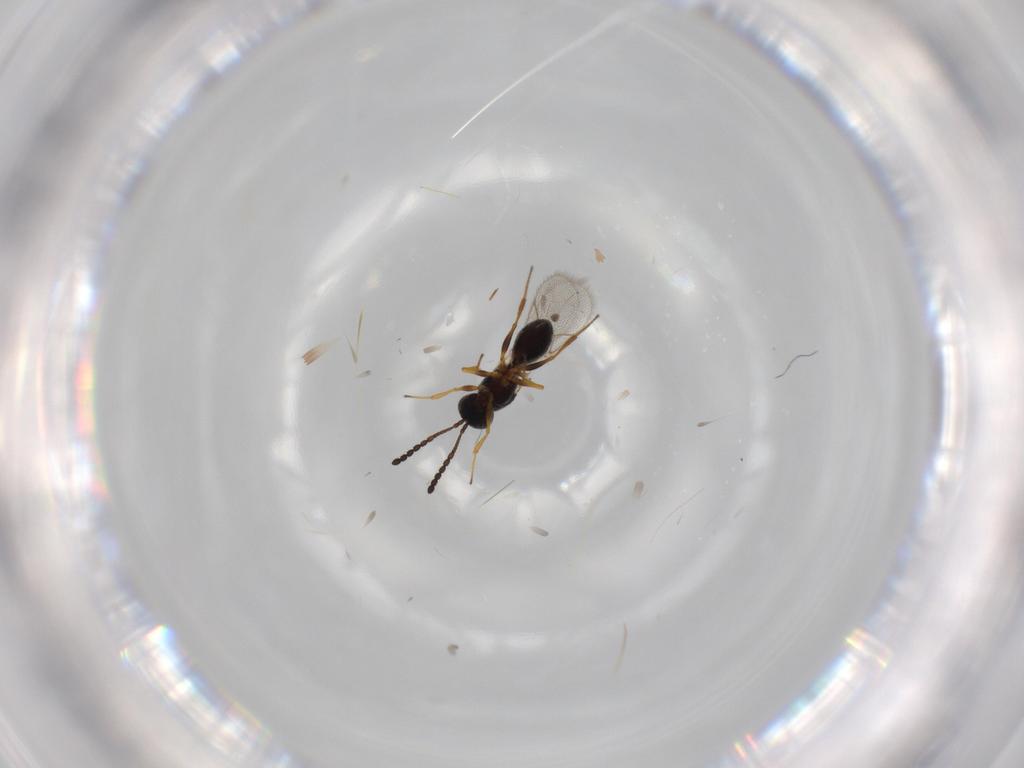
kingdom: Animalia
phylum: Arthropoda
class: Insecta
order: Hymenoptera
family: Figitidae
